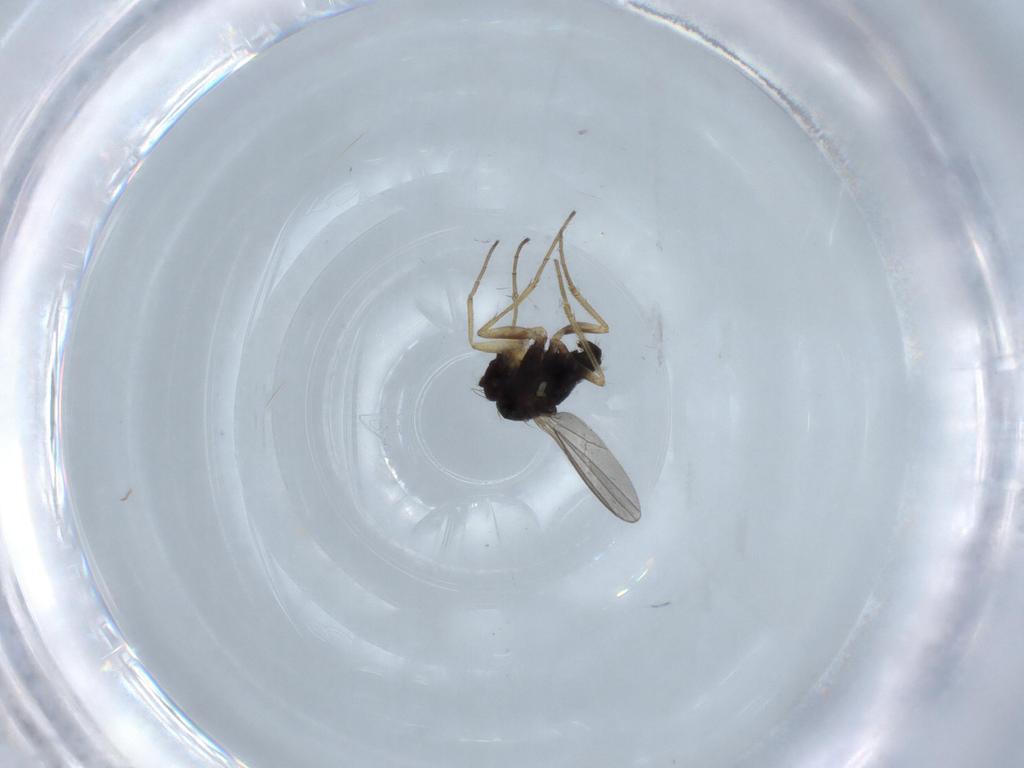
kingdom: Animalia
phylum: Arthropoda
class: Insecta
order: Diptera
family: Dolichopodidae
